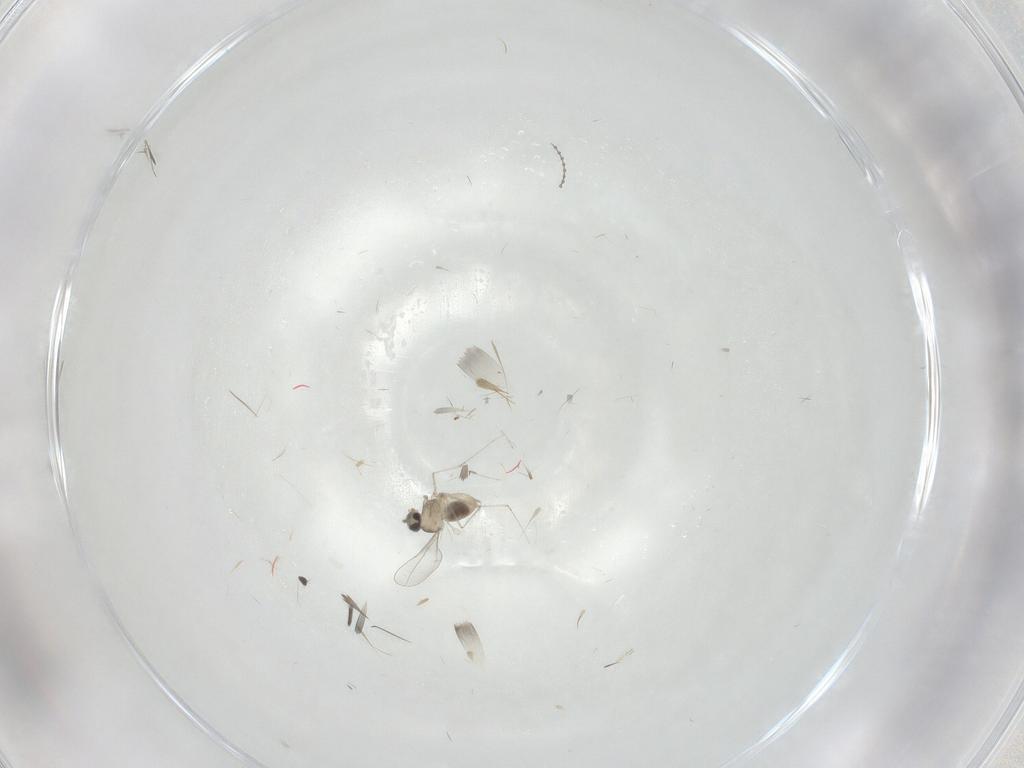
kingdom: Animalia
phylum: Arthropoda
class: Insecta
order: Diptera
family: Cecidomyiidae
